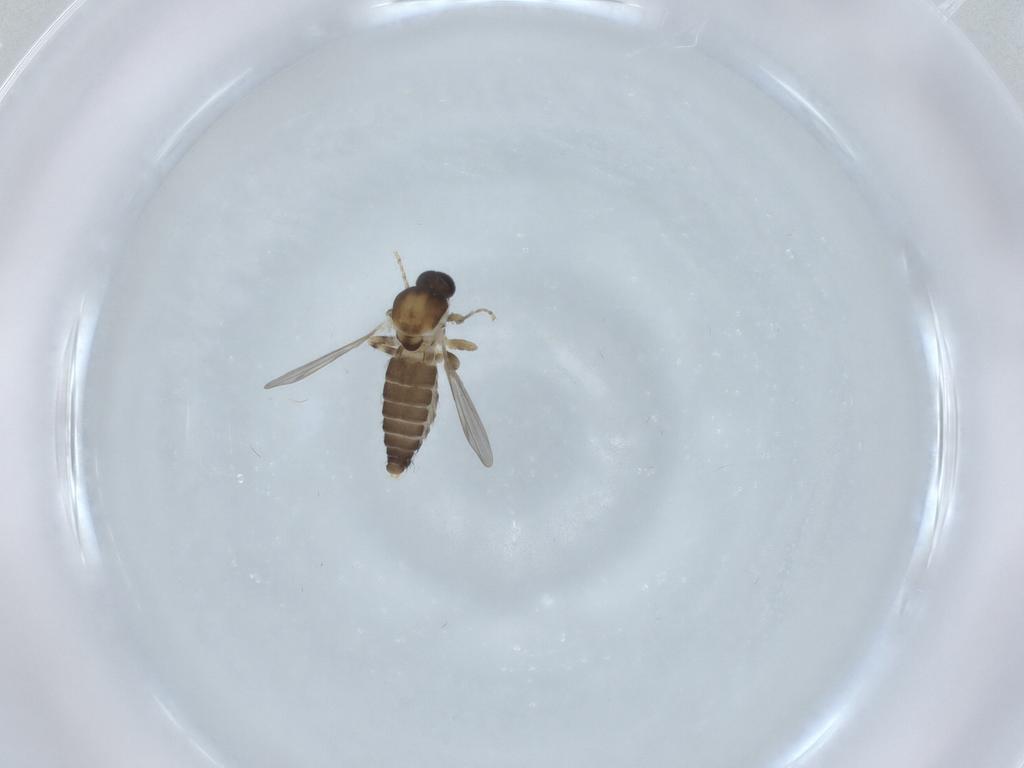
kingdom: Animalia
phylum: Arthropoda
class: Insecta
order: Diptera
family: Ceratopogonidae
